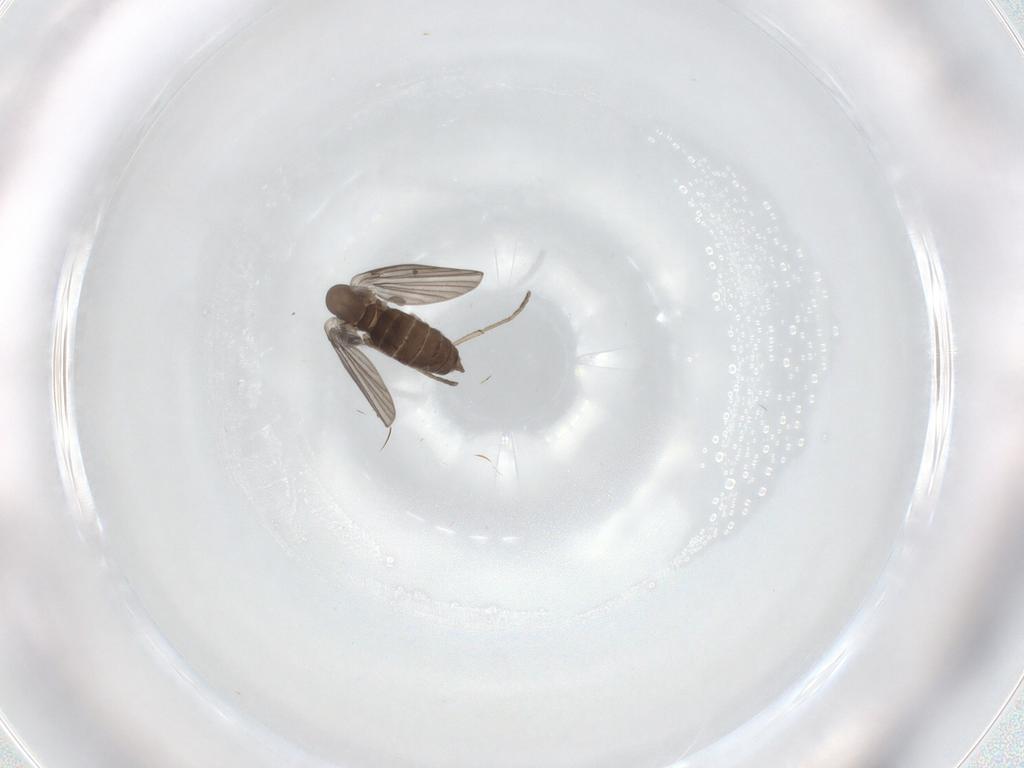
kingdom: Animalia
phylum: Arthropoda
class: Insecta
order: Diptera
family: Ceratopogonidae
